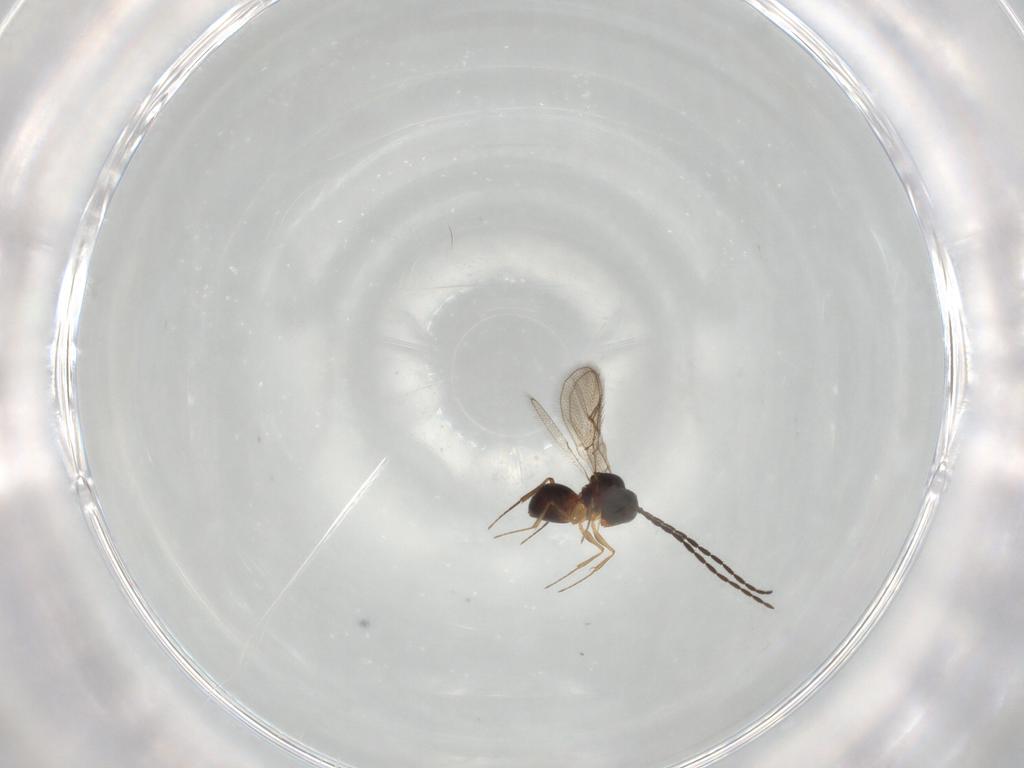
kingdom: Animalia
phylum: Arthropoda
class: Insecta
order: Hymenoptera
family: Figitidae
